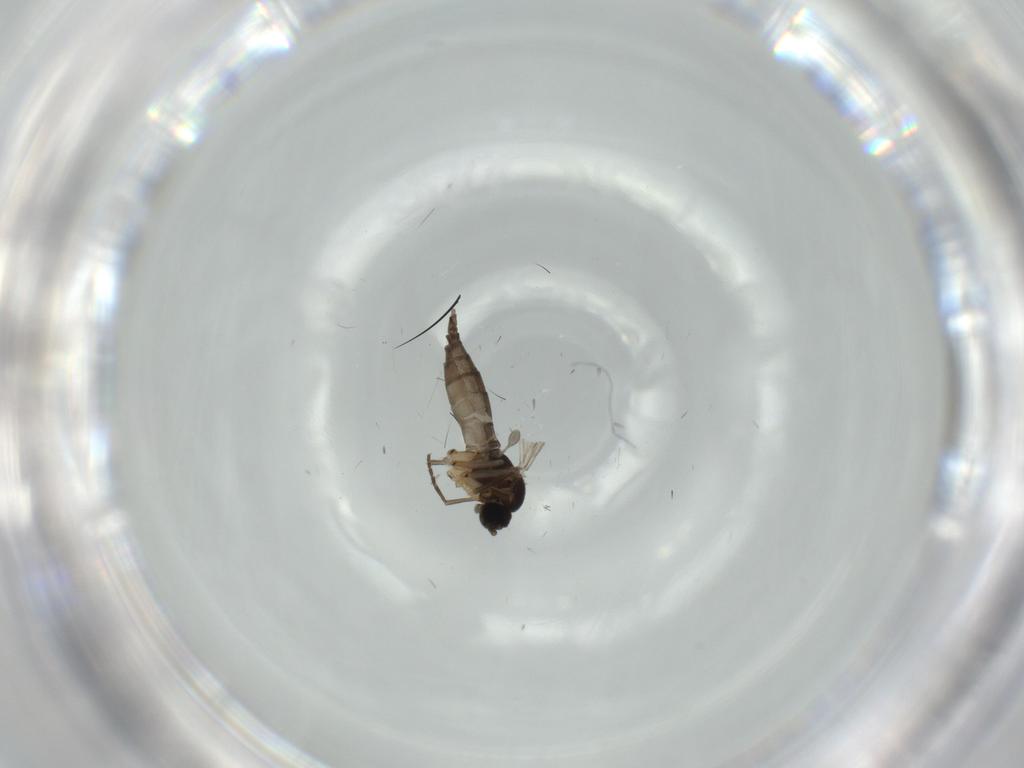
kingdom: Animalia
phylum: Arthropoda
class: Insecta
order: Diptera
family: Sciaridae
